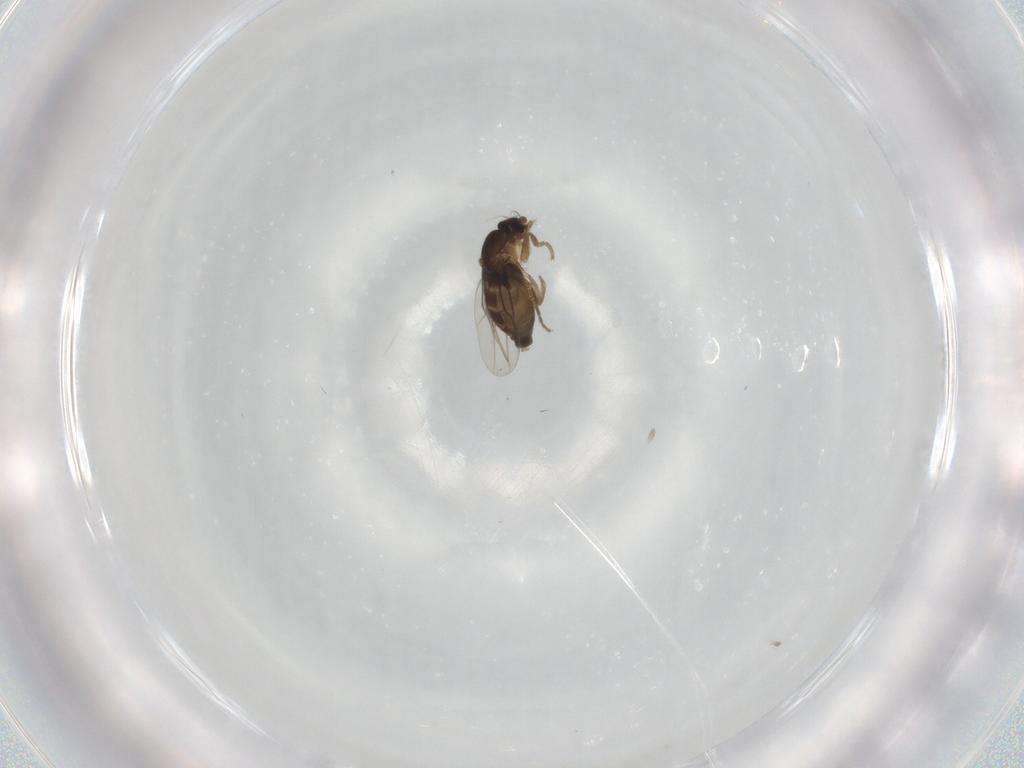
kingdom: Animalia
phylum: Arthropoda
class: Insecta
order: Diptera
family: Phoridae
